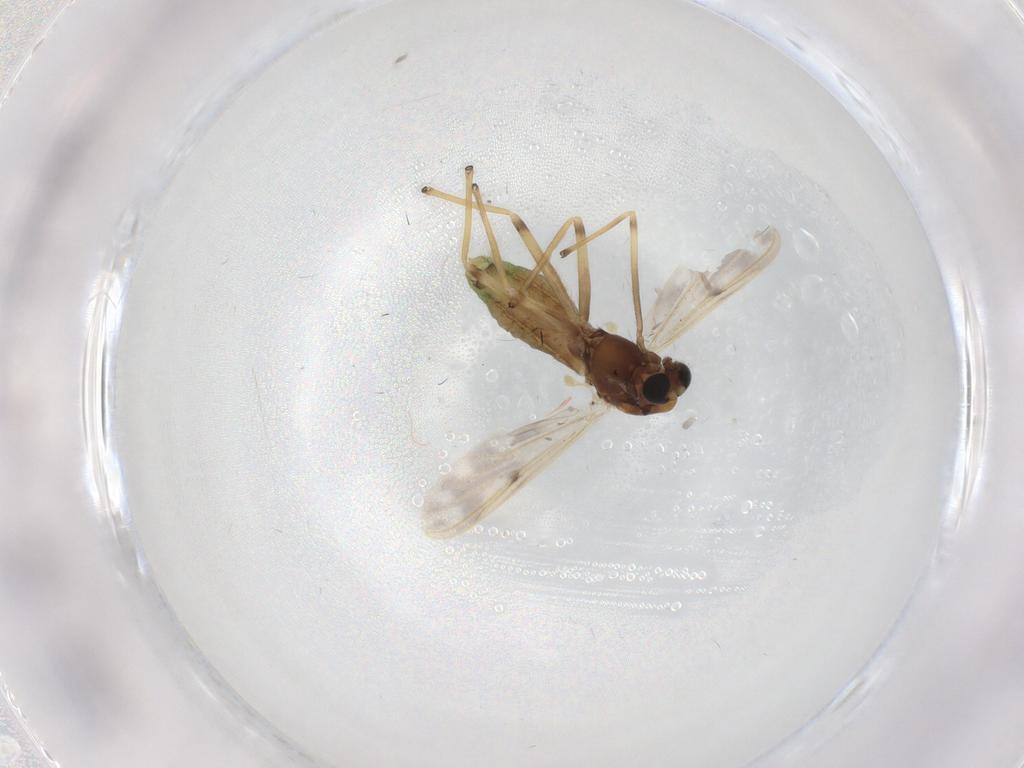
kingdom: Animalia
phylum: Arthropoda
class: Insecta
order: Diptera
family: Chironomidae
